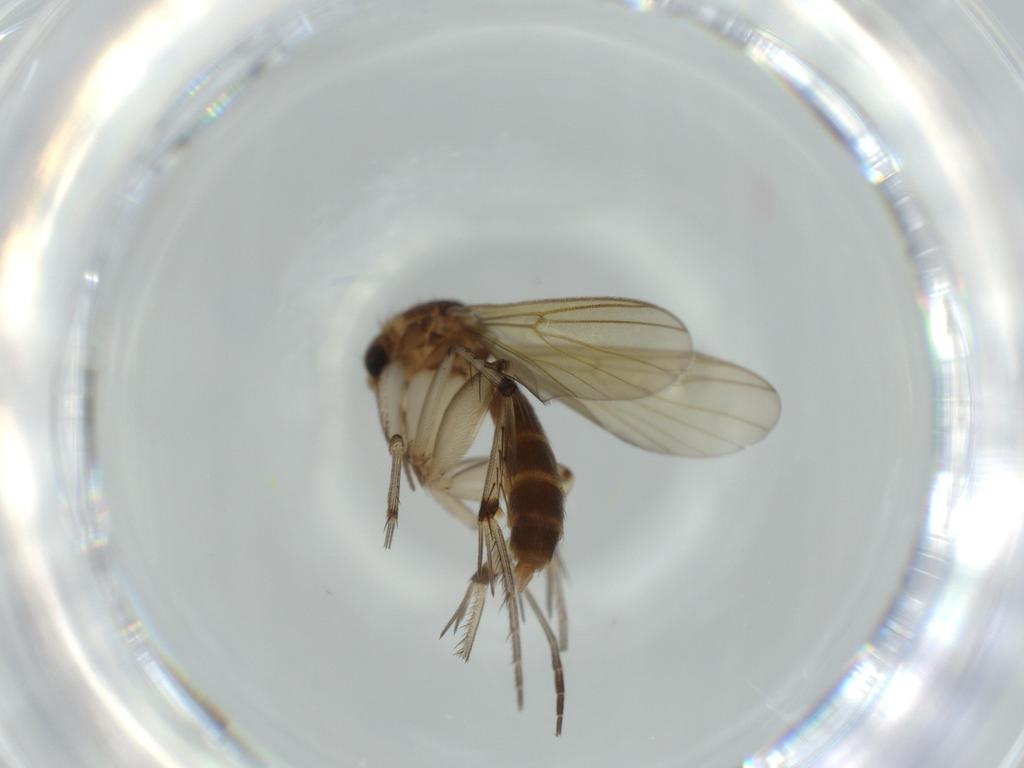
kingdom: Animalia
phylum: Arthropoda
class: Insecta
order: Diptera
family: Mycetophilidae
